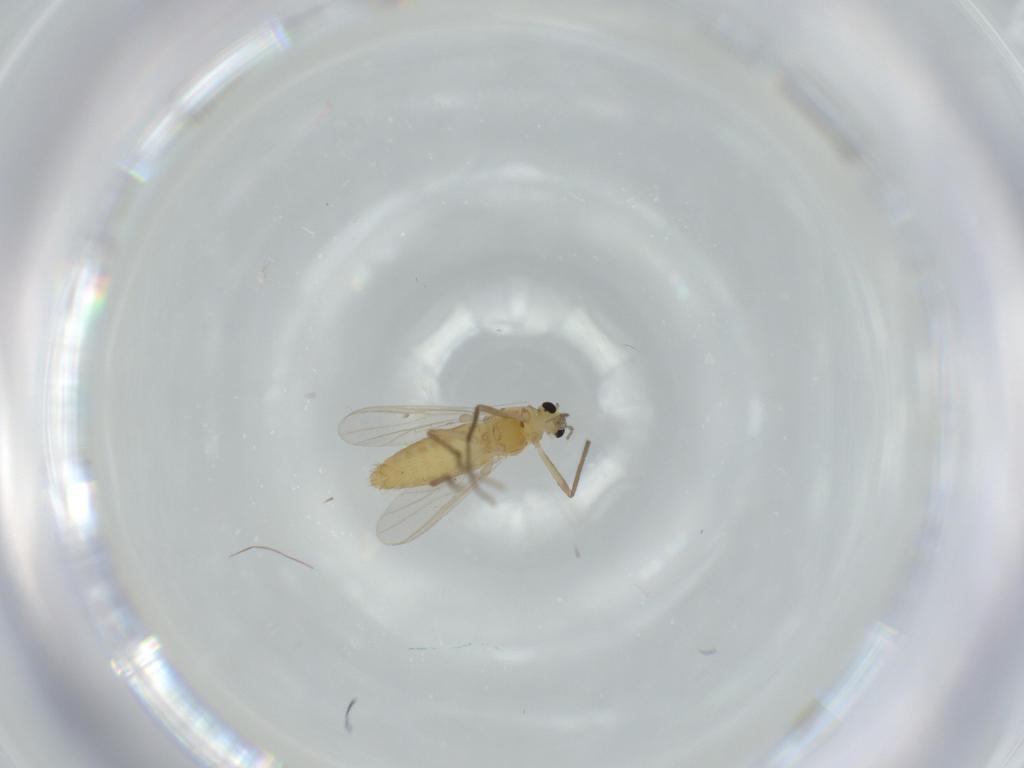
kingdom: Animalia
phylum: Arthropoda
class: Insecta
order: Diptera
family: Chironomidae
